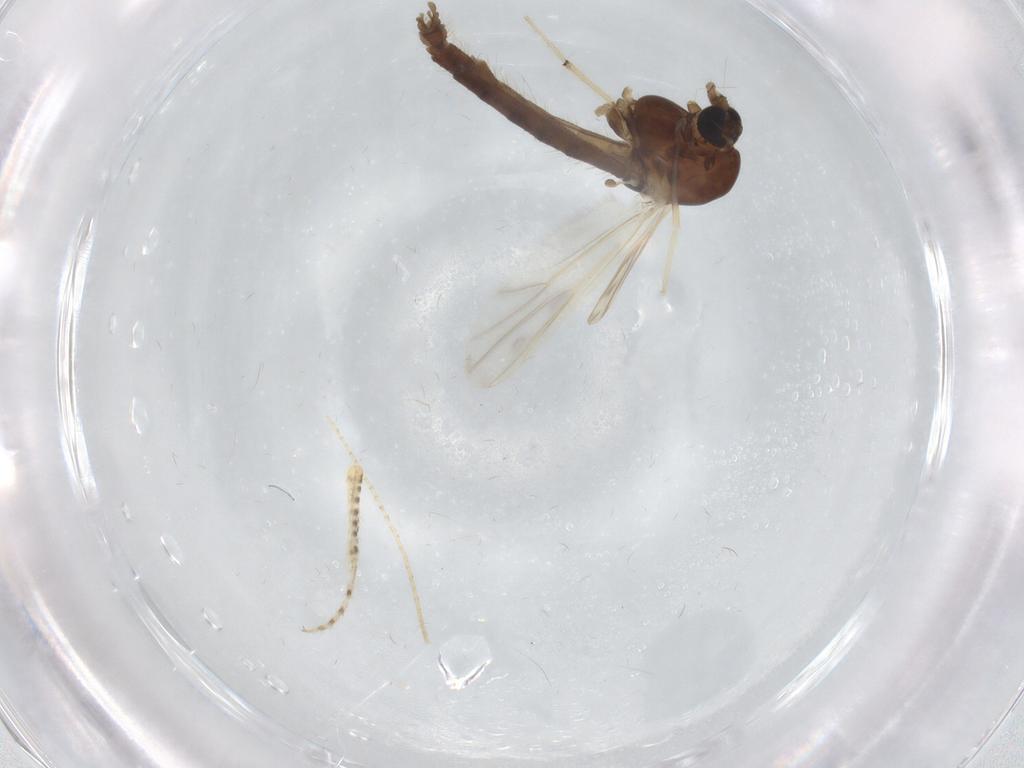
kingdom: Animalia
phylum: Arthropoda
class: Insecta
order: Diptera
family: Chironomidae
